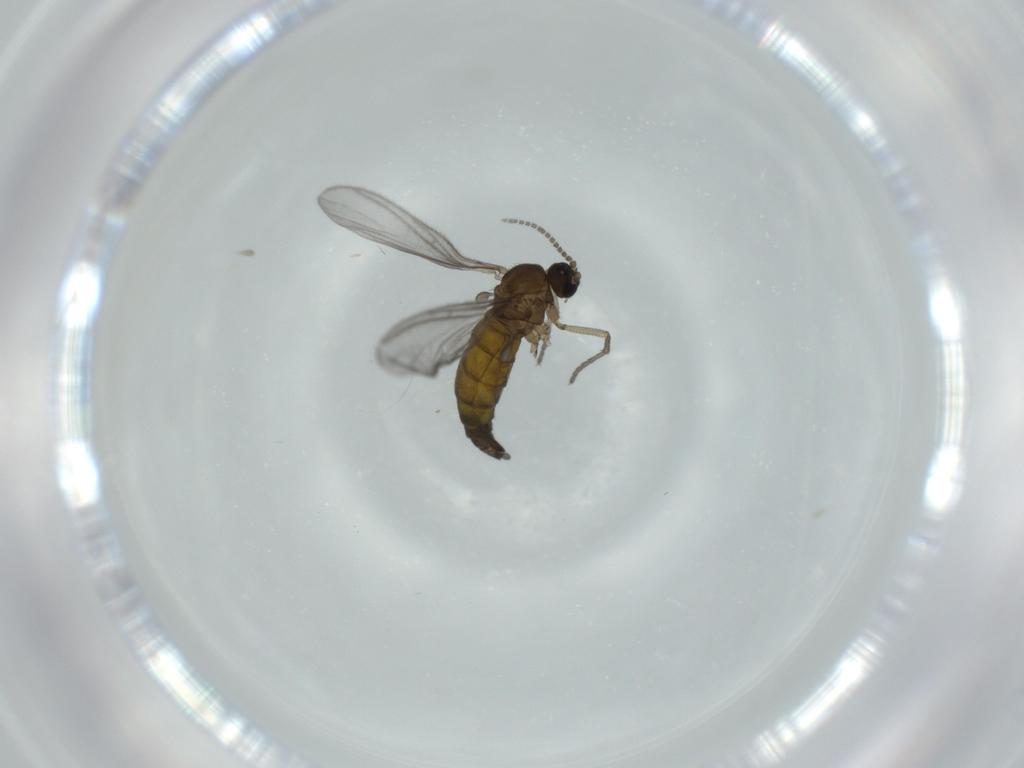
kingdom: Animalia
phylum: Arthropoda
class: Insecta
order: Diptera
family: Sciaridae
